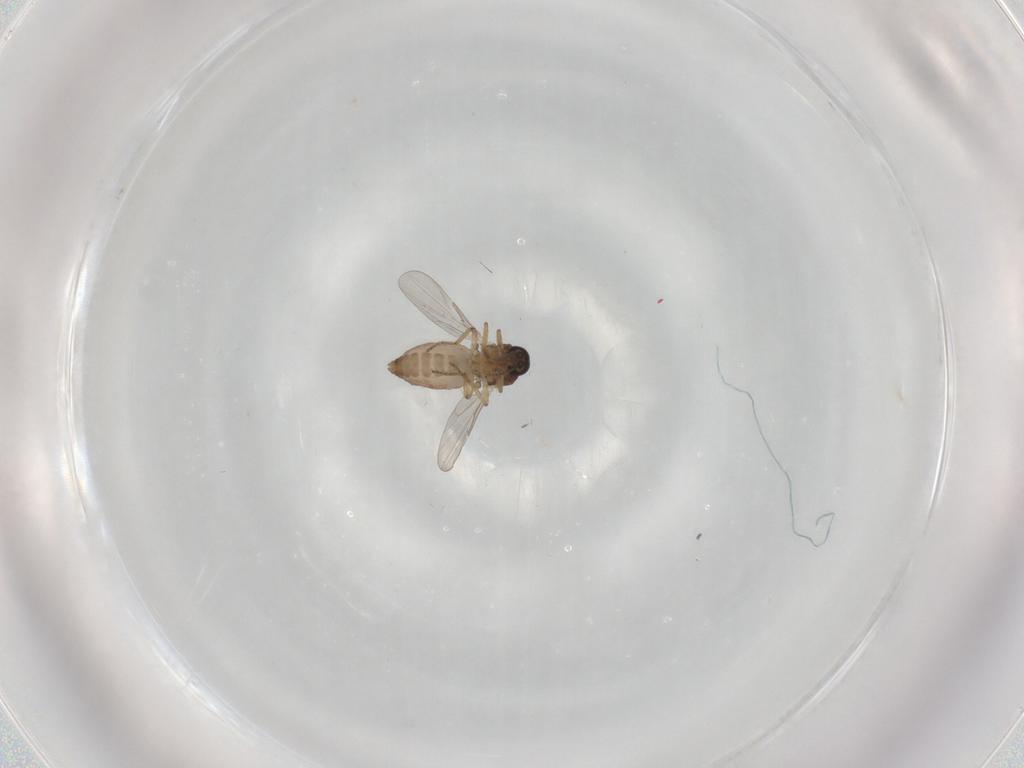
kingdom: Animalia
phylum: Arthropoda
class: Insecta
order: Diptera
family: Ceratopogonidae
